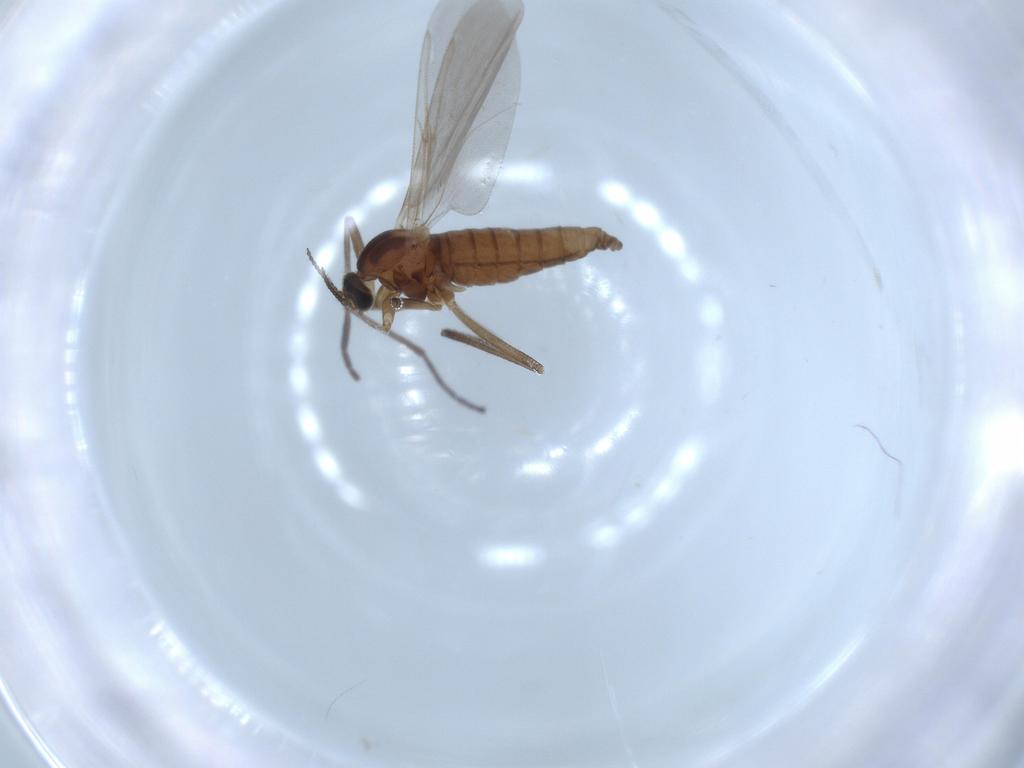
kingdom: Animalia
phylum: Arthropoda
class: Insecta
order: Diptera
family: Cecidomyiidae
